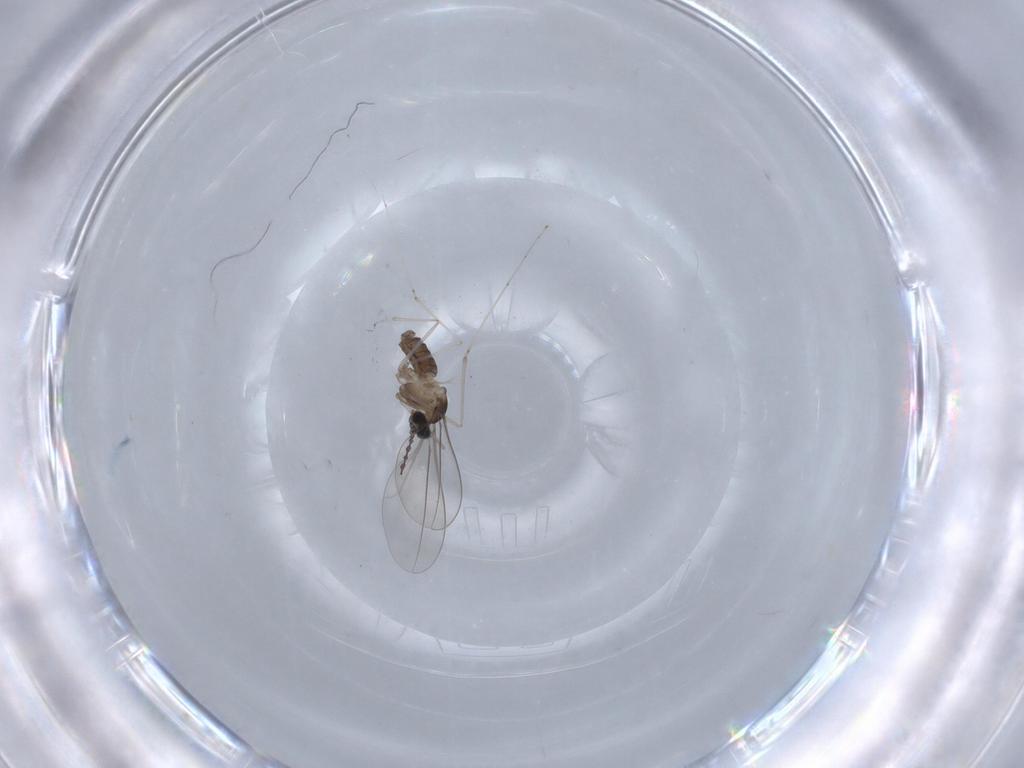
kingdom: Animalia
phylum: Arthropoda
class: Insecta
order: Diptera
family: Cecidomyiidae
